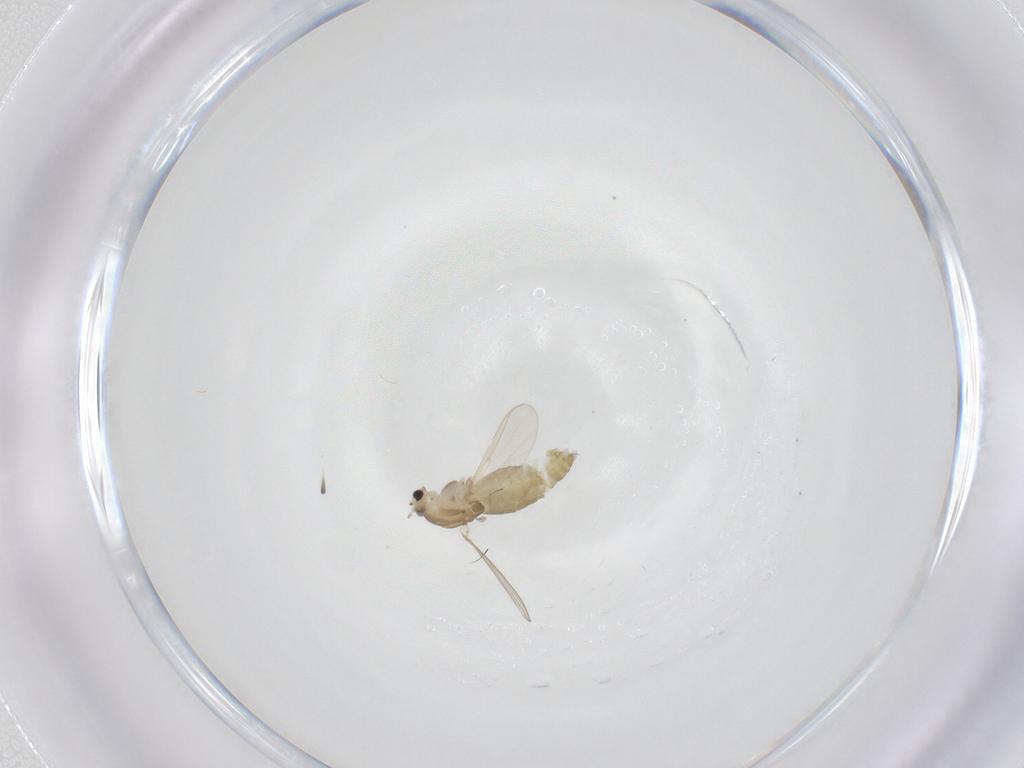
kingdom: Animalia
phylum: Arthropoda
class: Insecta
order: Diptera
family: Chironomidae
